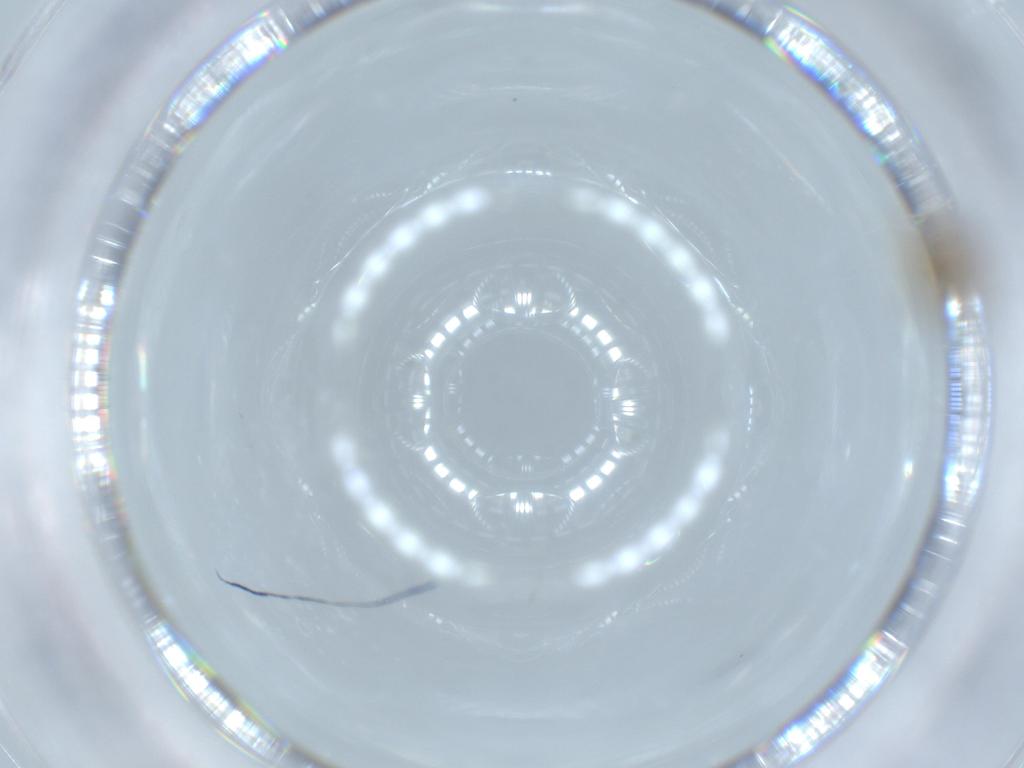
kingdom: Animalia
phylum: Arthropoda
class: Insecta
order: Diptera
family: Chironomidae
